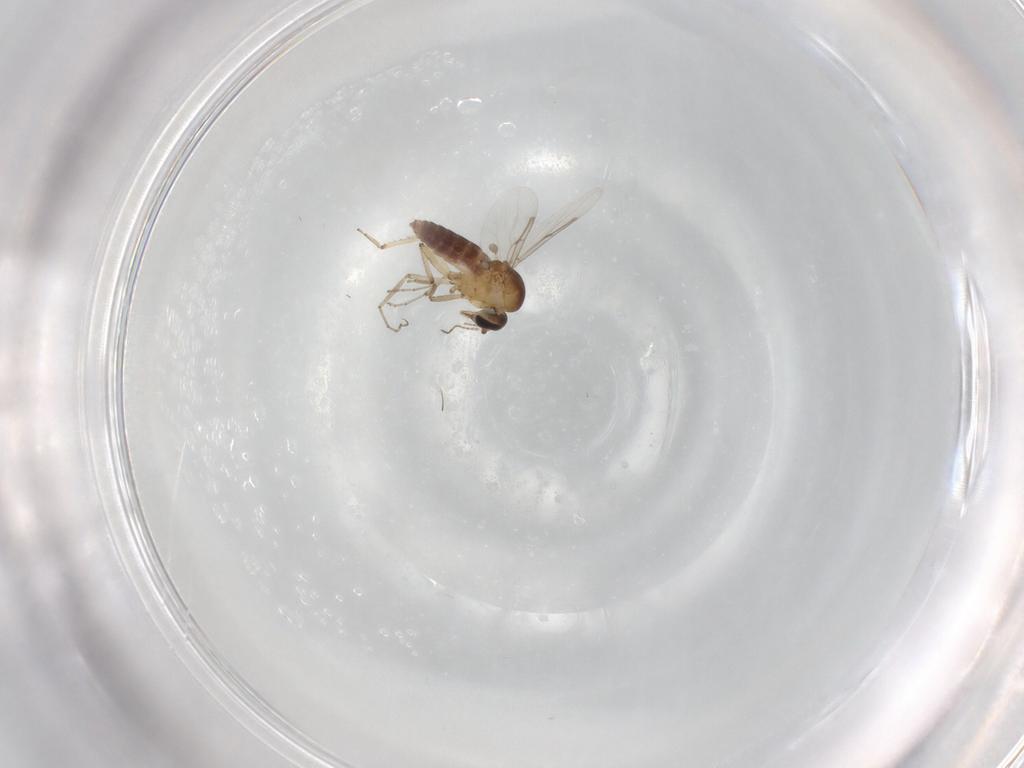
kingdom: Animalia
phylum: Arthropoda
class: Insecta
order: Diptera
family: Ceratopogonidae
